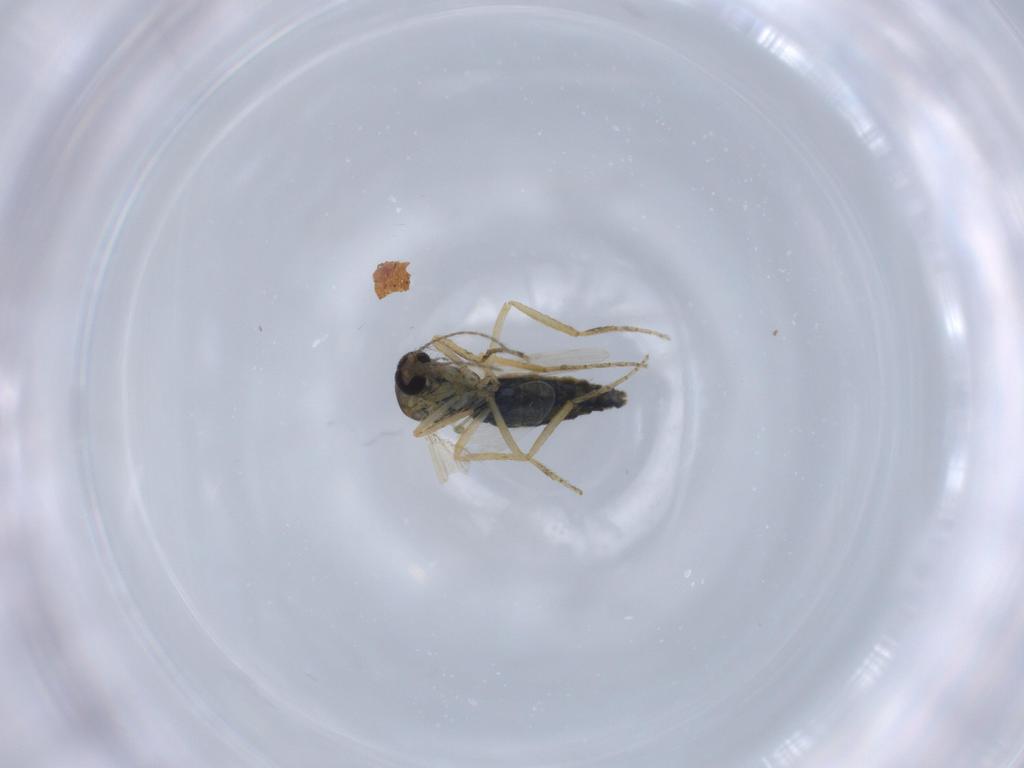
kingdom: Animalia
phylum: Arthropoda
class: Insecta
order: Diptera
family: Ceratopogonidae
